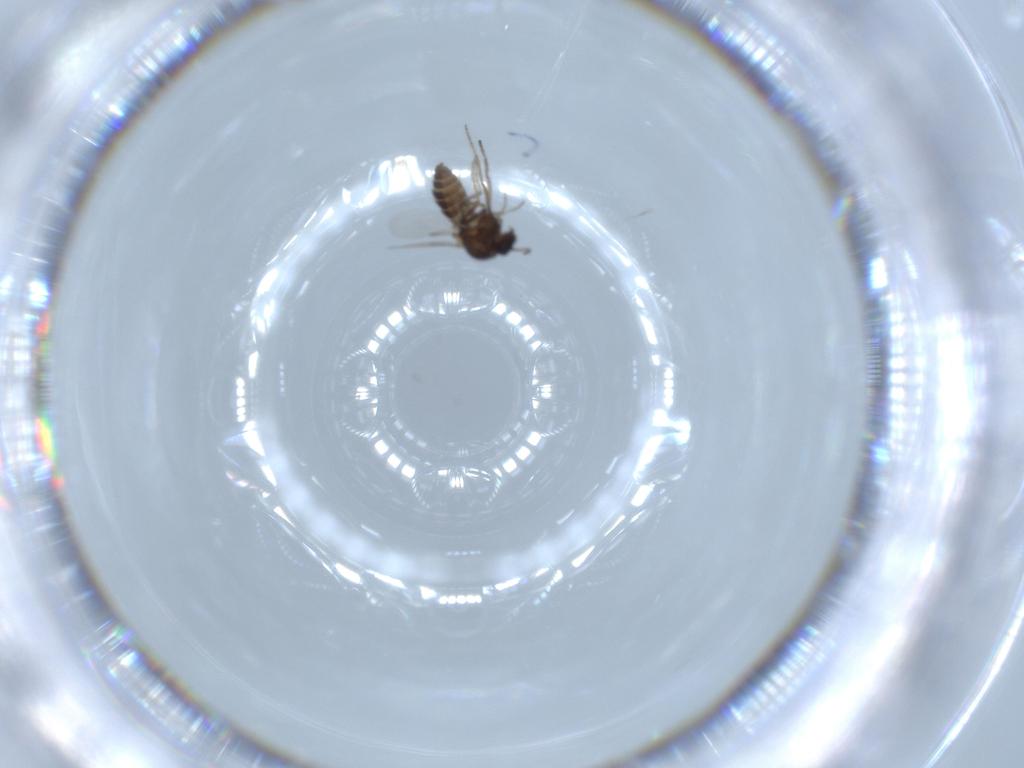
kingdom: Animalia
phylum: Arthropoda
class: Insecta
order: Diptera
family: Ceratopogonidae
